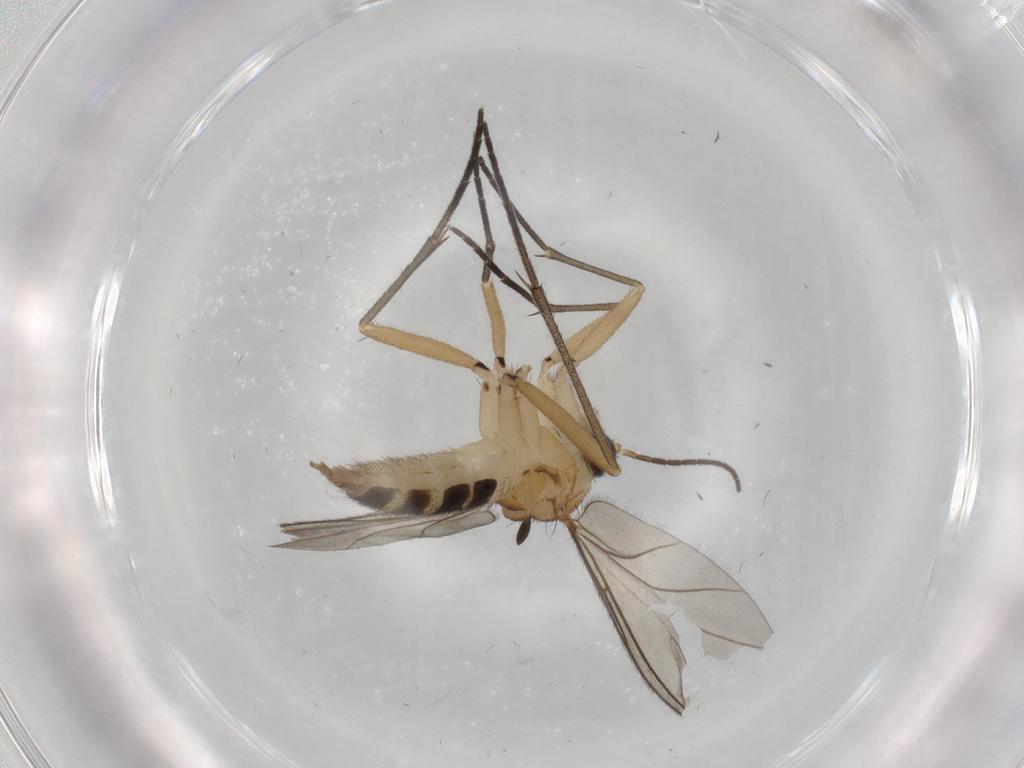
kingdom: Animalia
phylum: Arthropoda
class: Insecta
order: Diptera
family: Sciaridae
